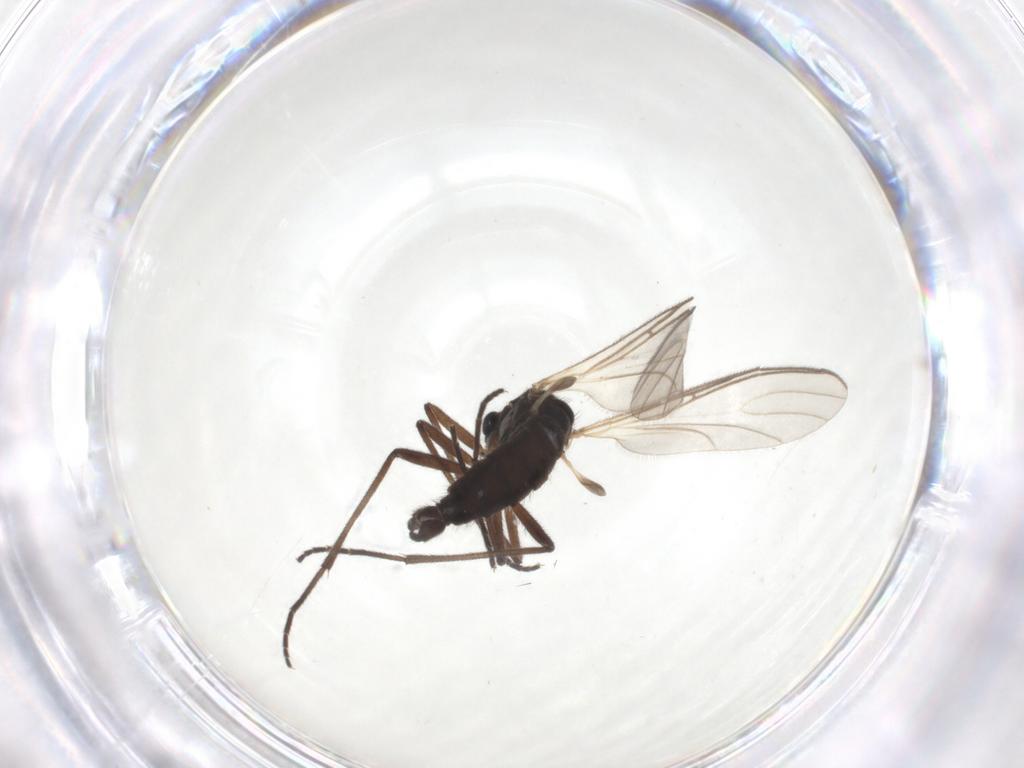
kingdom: Animalia
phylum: Arthropoda
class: Insecta
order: Diptera
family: Sciaridae
